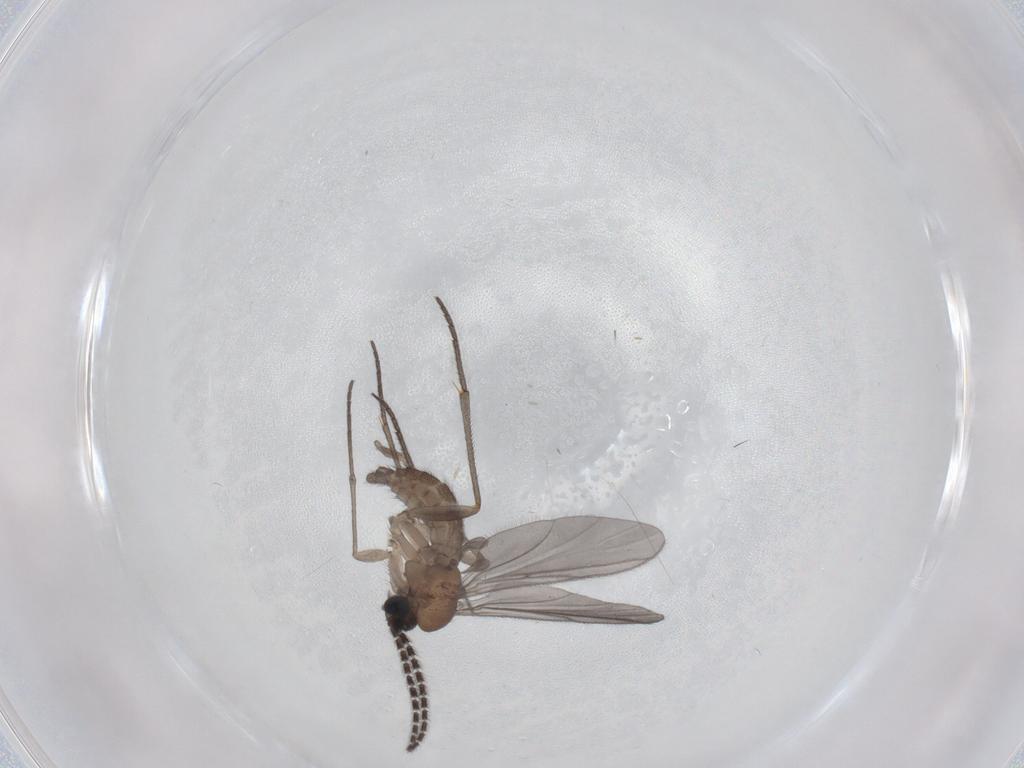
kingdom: Animalia
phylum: Arthropoda
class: Insecta
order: Diptera
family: Sciaridae
